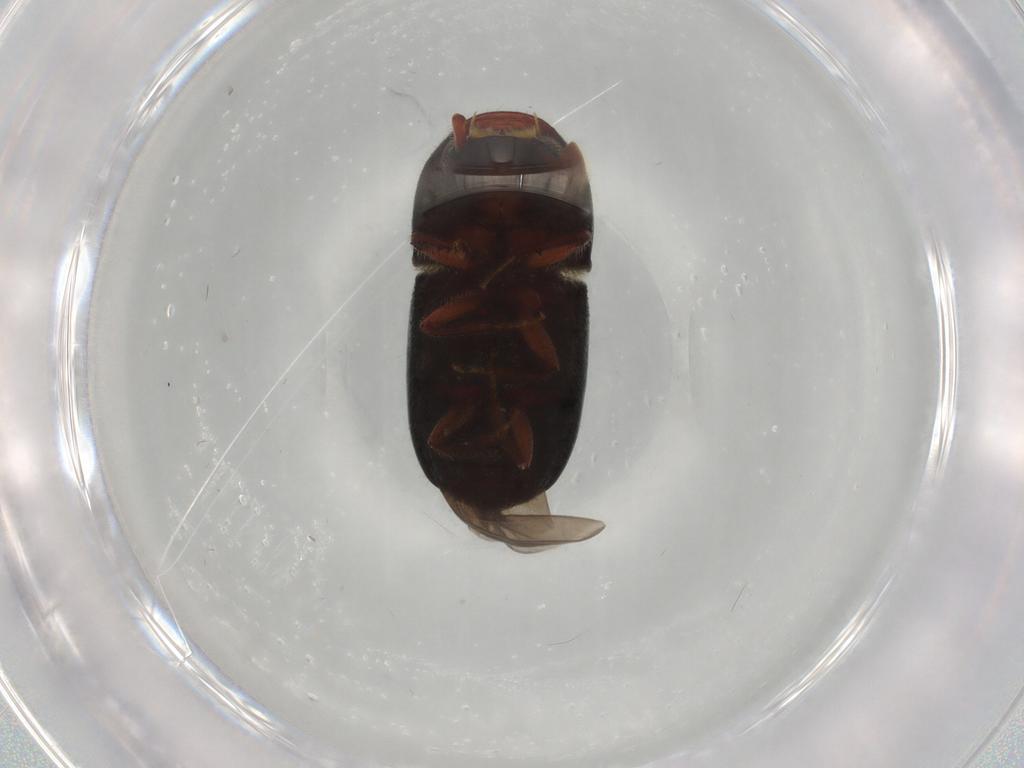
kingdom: Animalia
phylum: Arthropoda
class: Insecta
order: Coleoptera
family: Curculionidae
